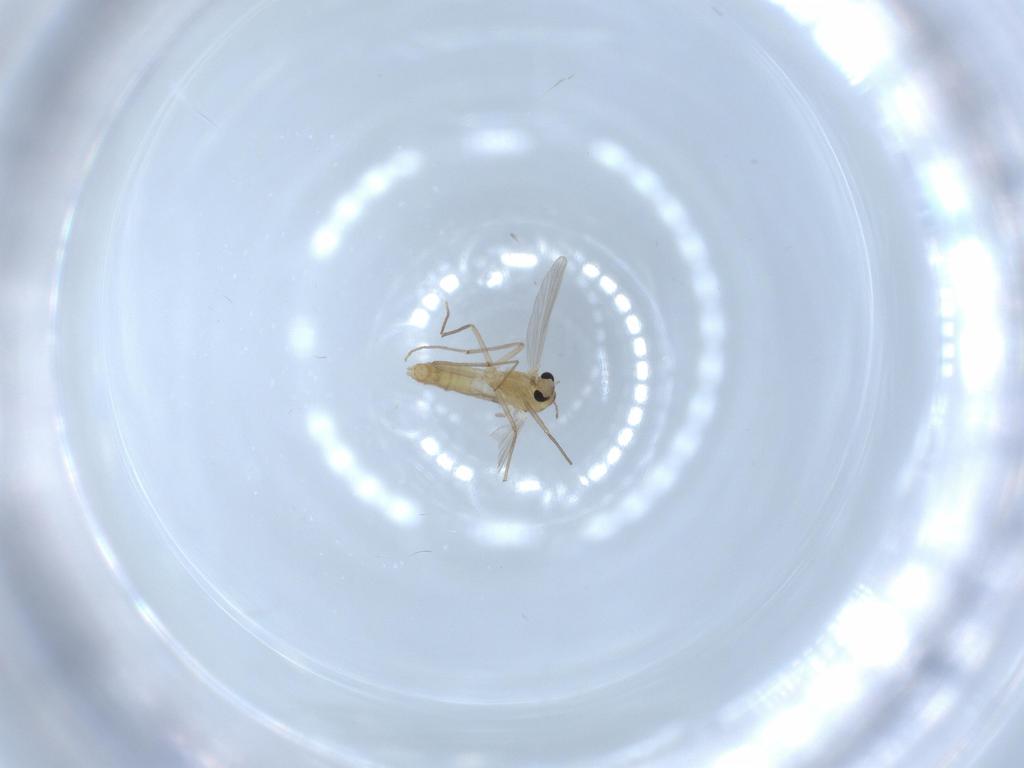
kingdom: Animalia
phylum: Arthropoda
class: Insecta
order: Diptera
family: Chironomidae
